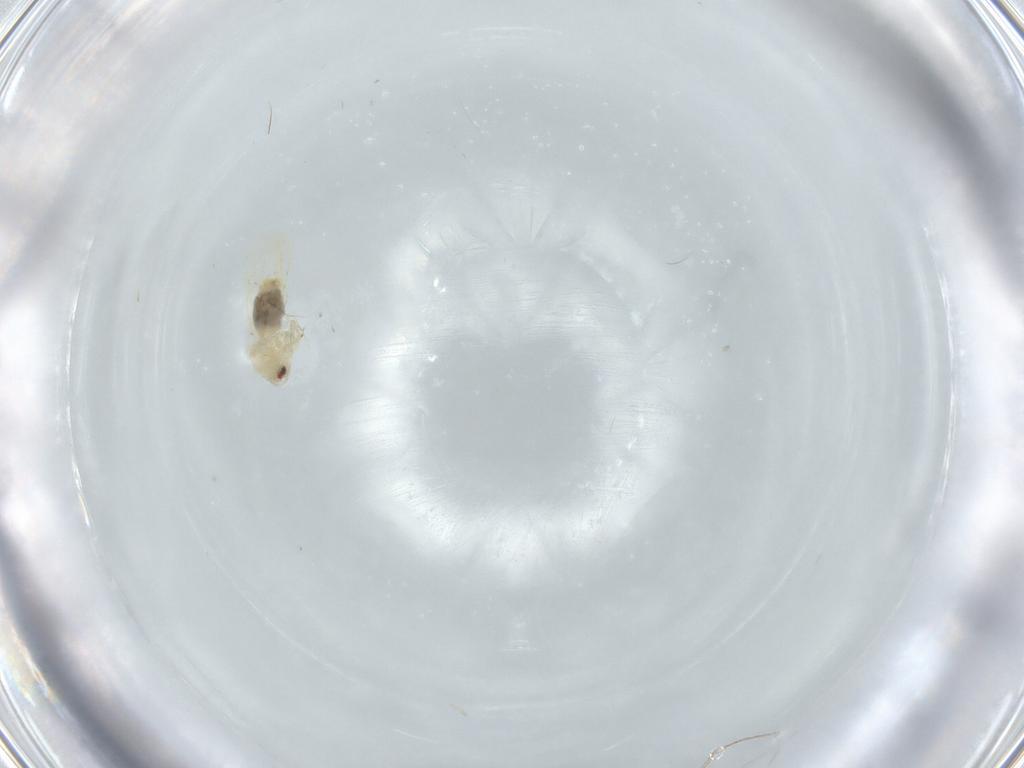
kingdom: Animalia
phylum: Arthropoda
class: Insecta
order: Hemiptera
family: Aleyrodidae
